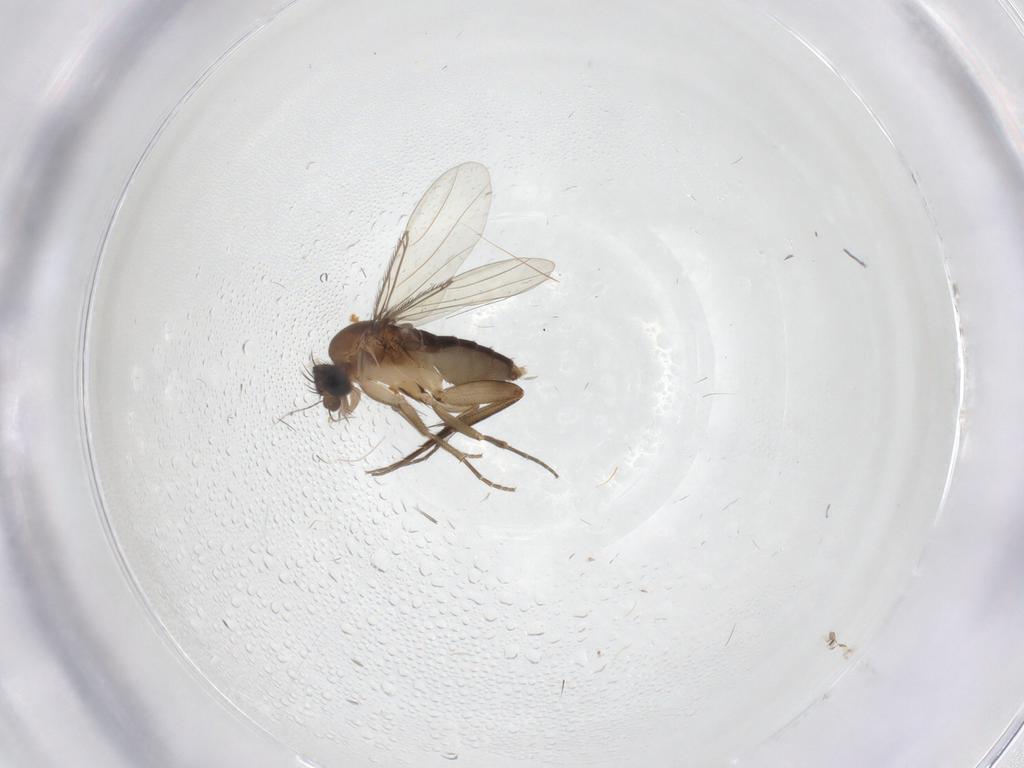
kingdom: Animalia
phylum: Arthropoda
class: Insecta
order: Diptera
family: Phoridae
